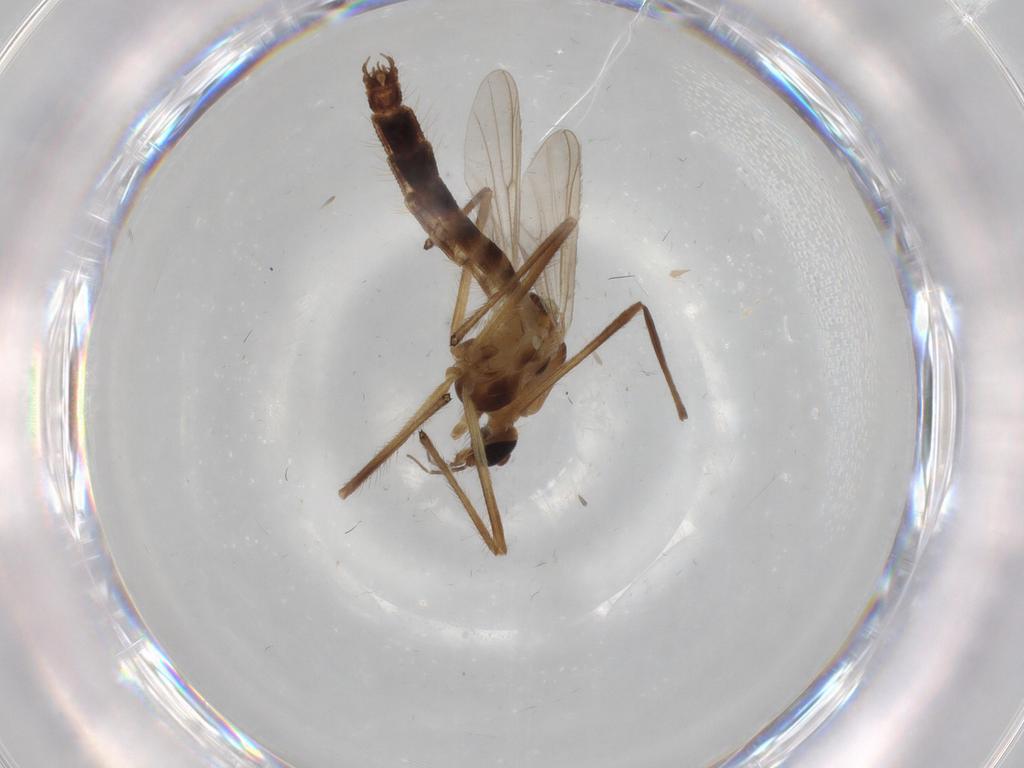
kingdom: Animalia
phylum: Arthropoda
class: Insecta
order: Diptera
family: Chironomidae
